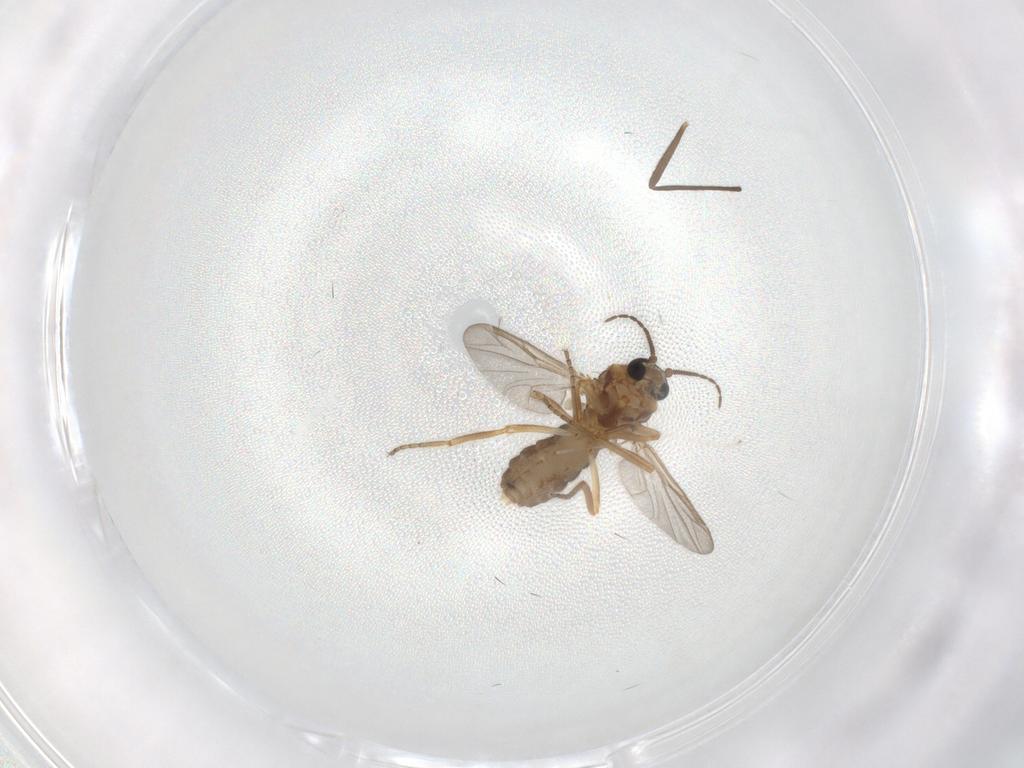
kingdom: Animalia
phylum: Arthropoda
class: Insecta
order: Diptera
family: Ceratopogonidae
